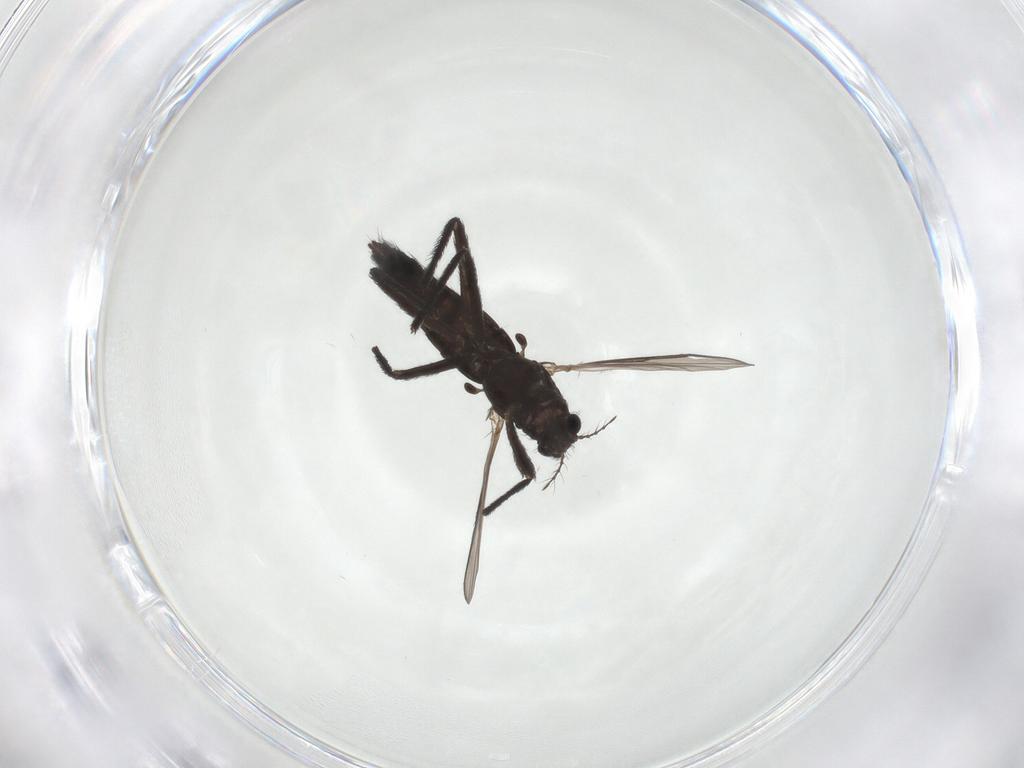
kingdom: Animalia
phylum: Arthropoda
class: Insecta
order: Diptera
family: Chironomidae
